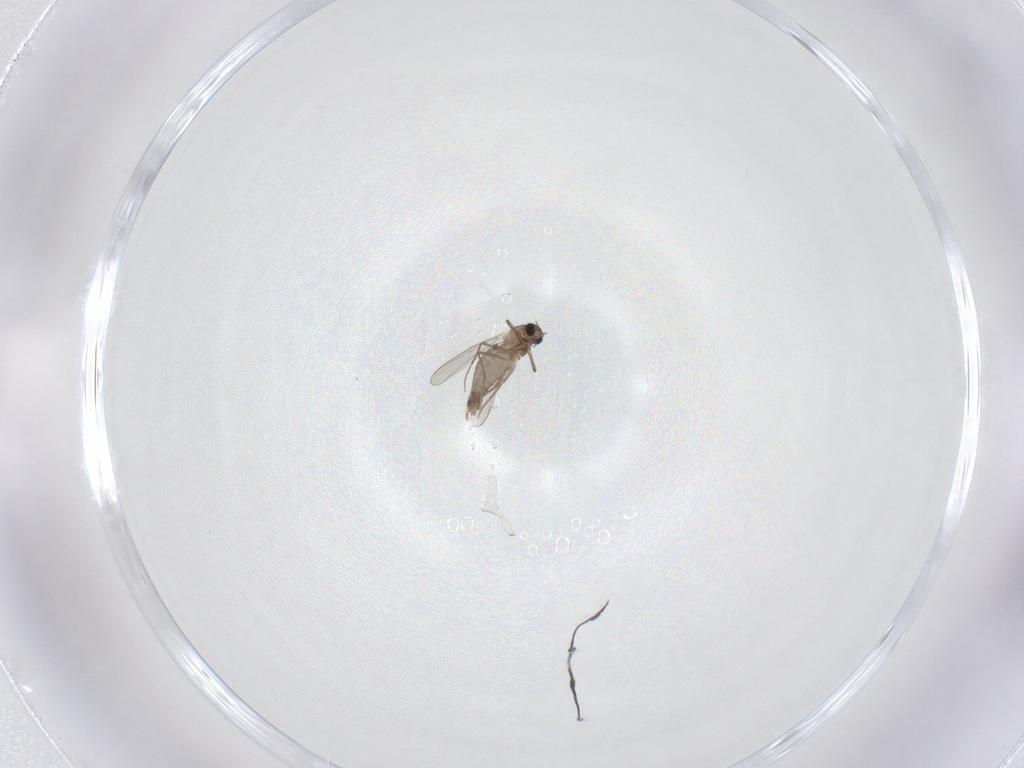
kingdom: Animalia
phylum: Arthropoda
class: Insecta
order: Diptera
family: Chironomidae
